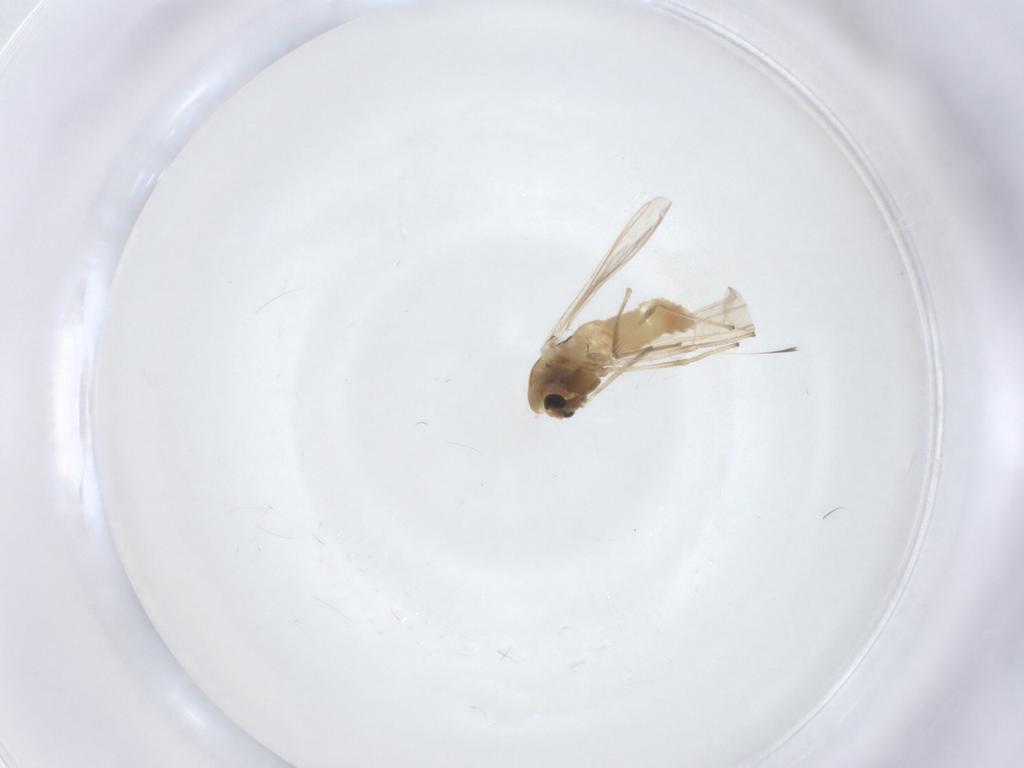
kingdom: Animalia
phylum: Arthropoda
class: Insecta
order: Diptera
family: Chironomidae
